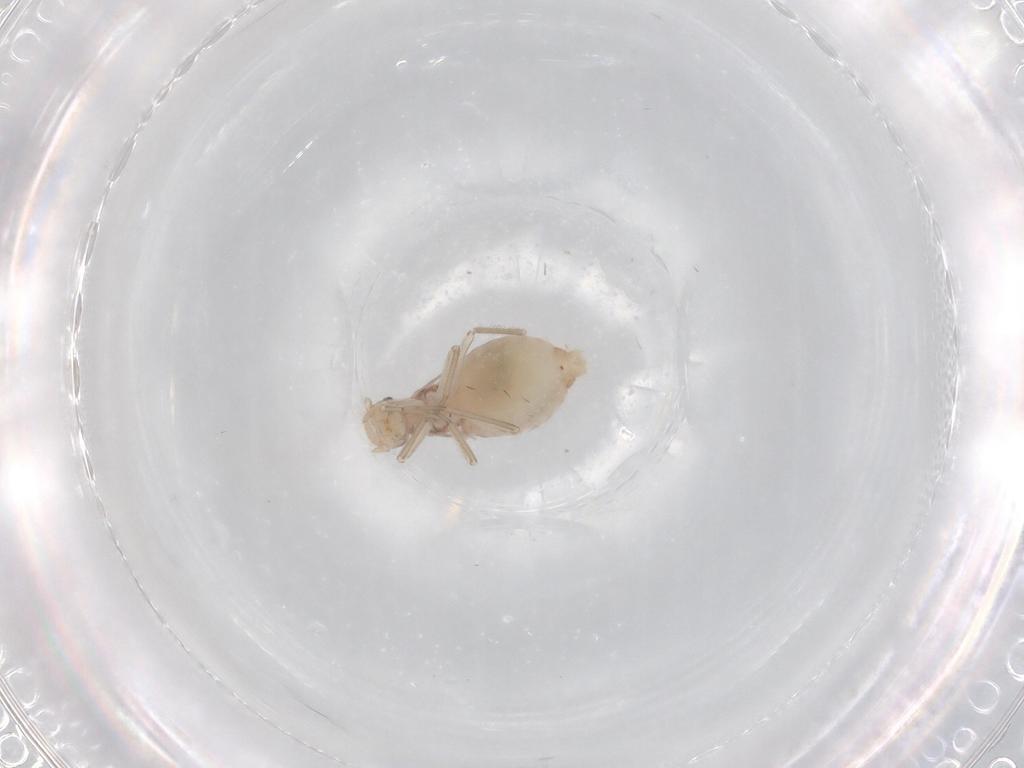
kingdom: Animalia
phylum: Arthropoda
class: Insecta
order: Psocodea
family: Cladiopsocidae
